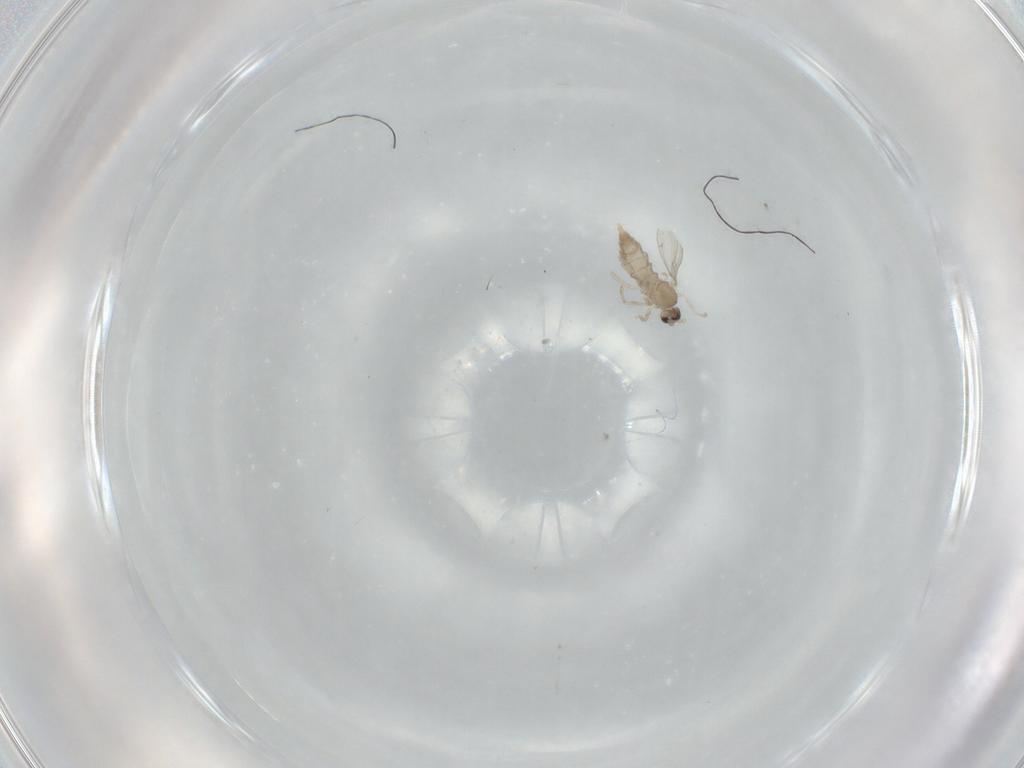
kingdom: Animalia
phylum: Arthropoda
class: Insecta
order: Diptera
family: Cecidomyiidae
